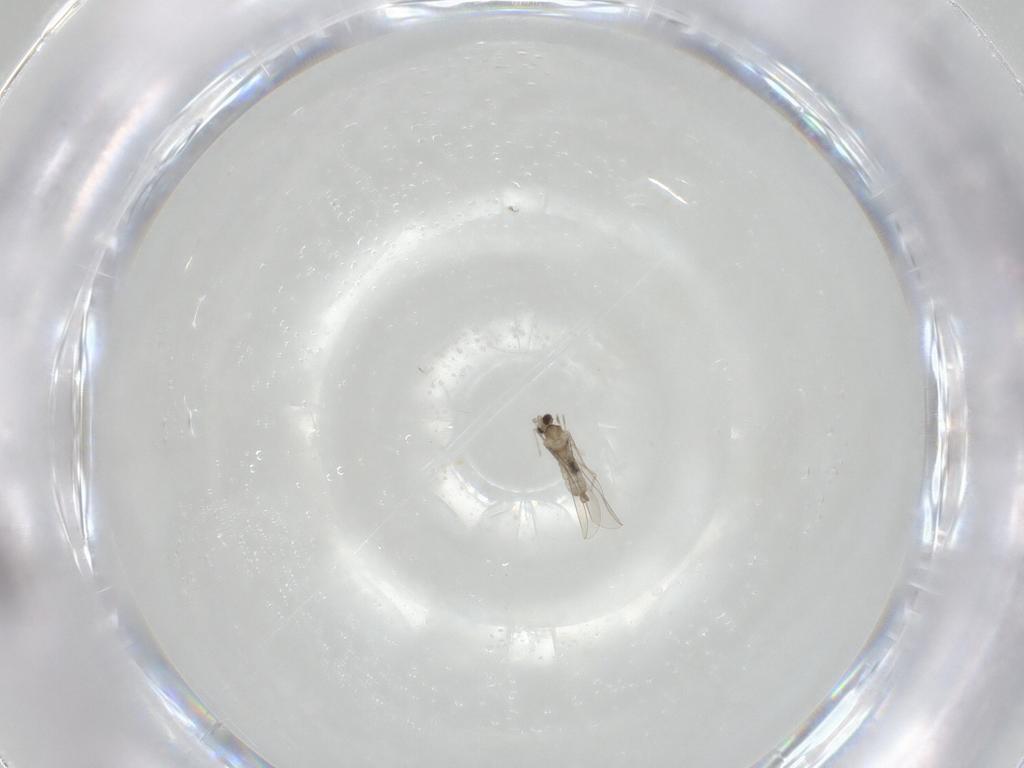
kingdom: Animalia
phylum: Arthropoda
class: Insecta
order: Diptera
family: Cecidomyiidae
